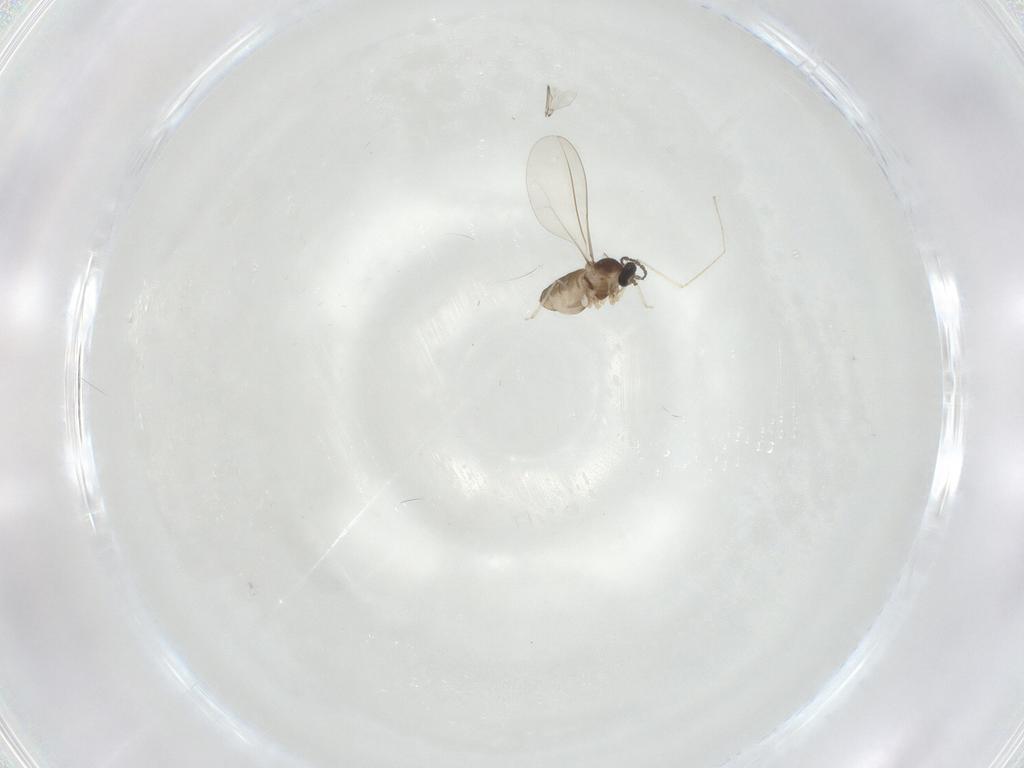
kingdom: Animalia
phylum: Arthropoda
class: Insecta
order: Diptera
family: Cecidomyiidae
